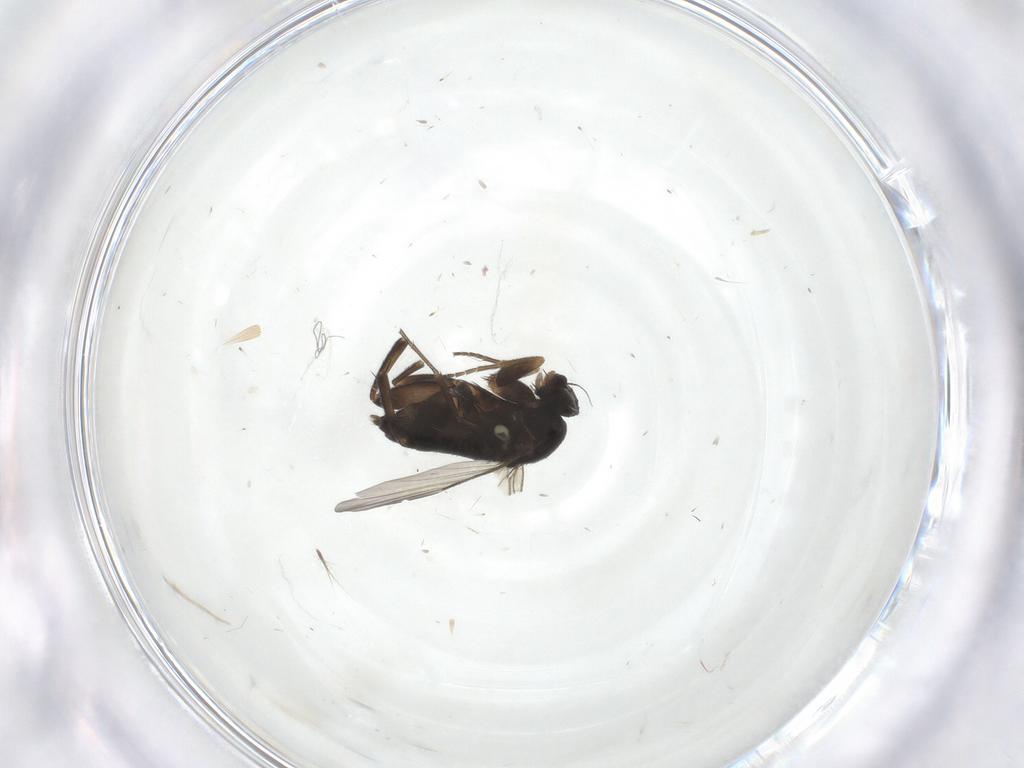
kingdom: Animalia
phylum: Arthropoda
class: Insecta
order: Diptera
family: Phoridae
